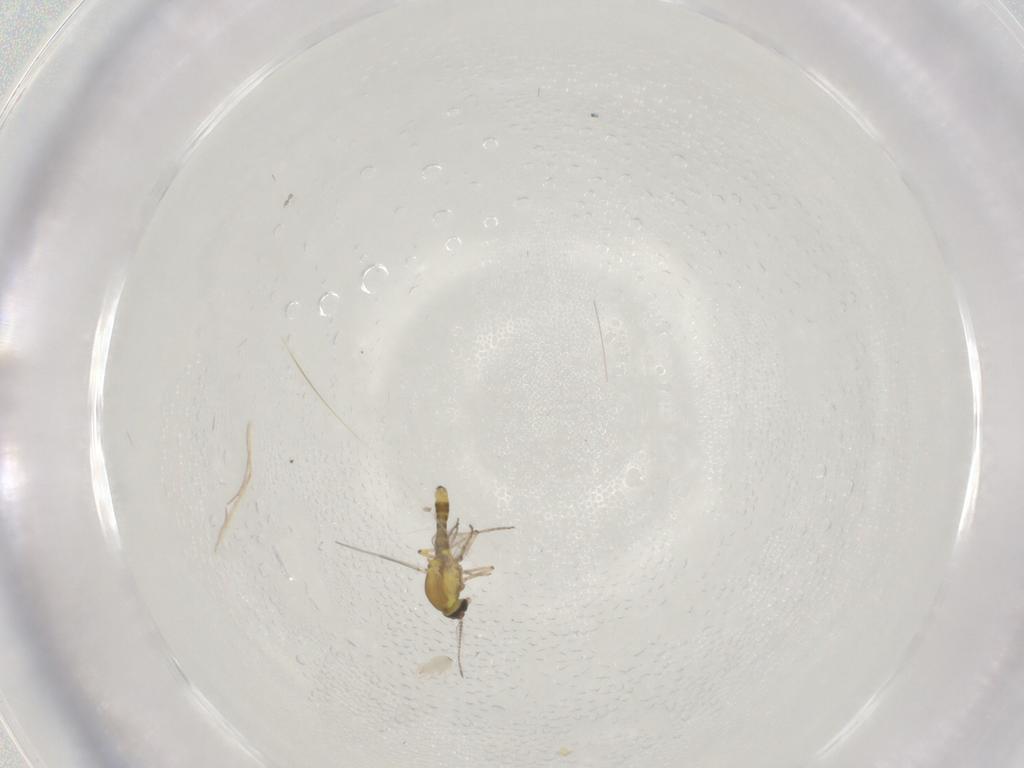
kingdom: Animalia
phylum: Arthropoda
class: Insecta
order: Diptera
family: Ceratopogonidae
